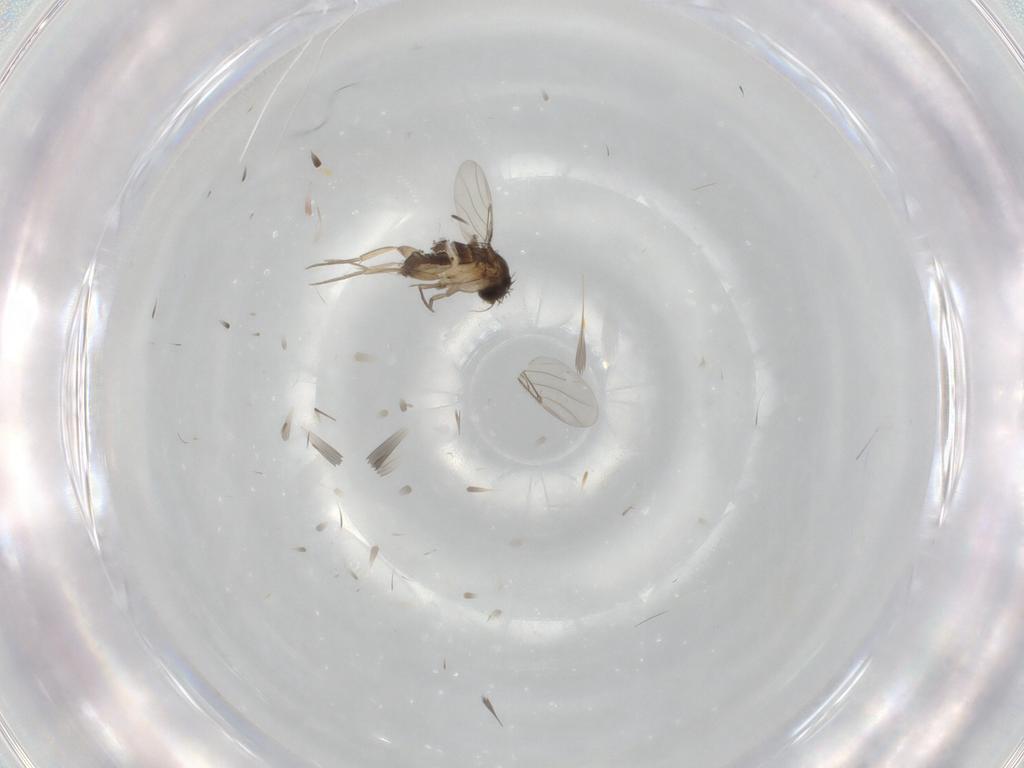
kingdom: Animalia
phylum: Arthropoda
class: Insecta
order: Diptera
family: Phoridae
